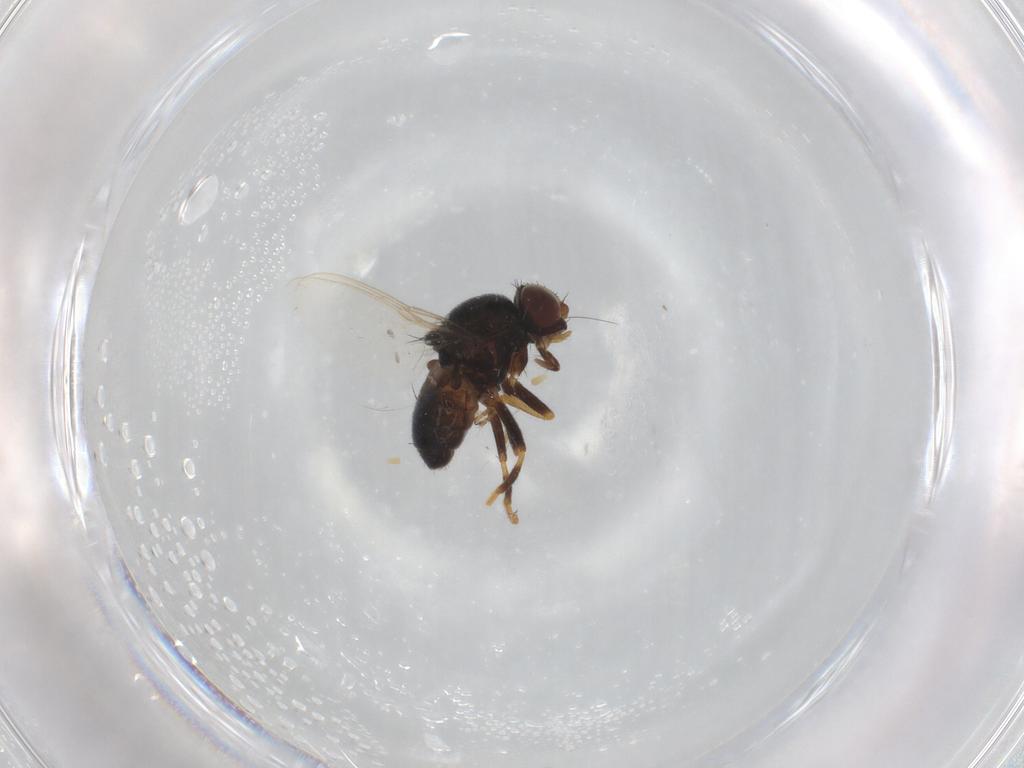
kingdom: Animalia
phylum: Arthropoda
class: Insecta
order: Diptera
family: Chloropidae
